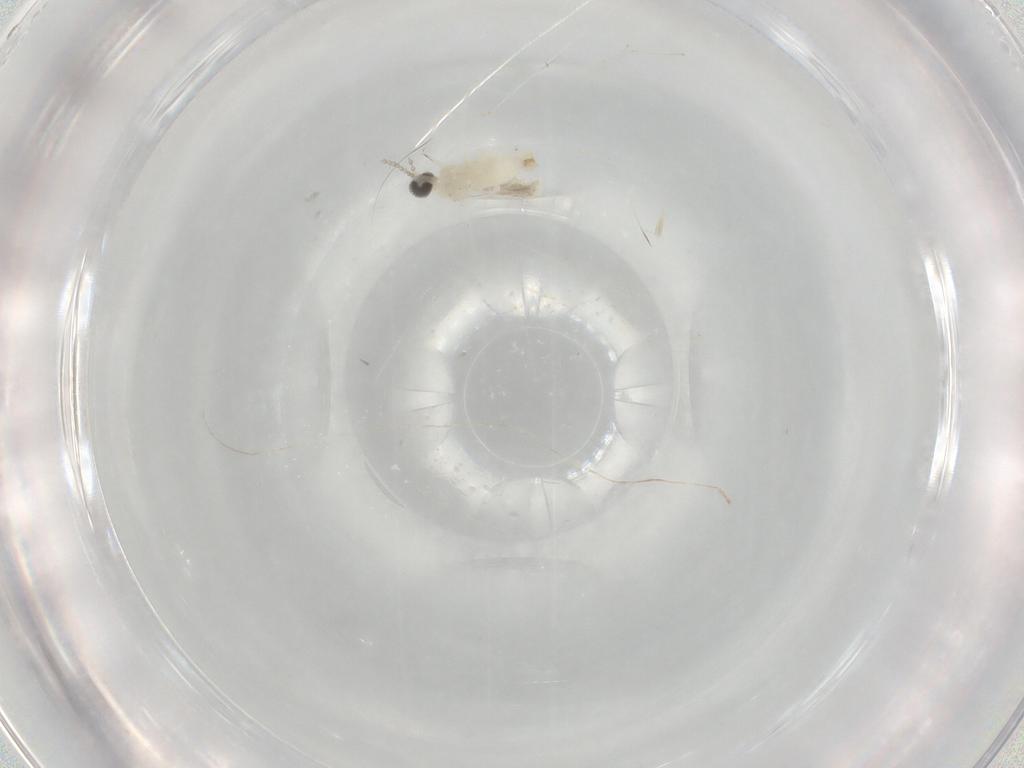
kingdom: Animalia
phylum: Arthropoda
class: Insecta
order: Diptera
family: Cecidomyiidae
